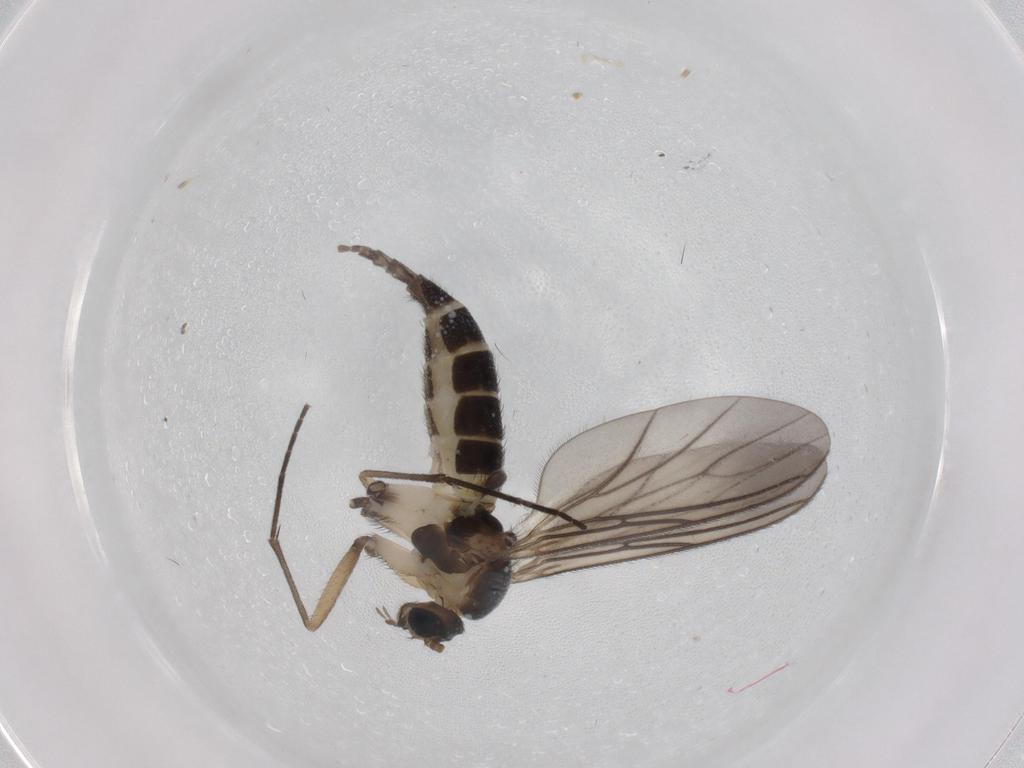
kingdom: Animalia
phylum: Arthropoda
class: Insecta
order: Diptera
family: Sciaridae
